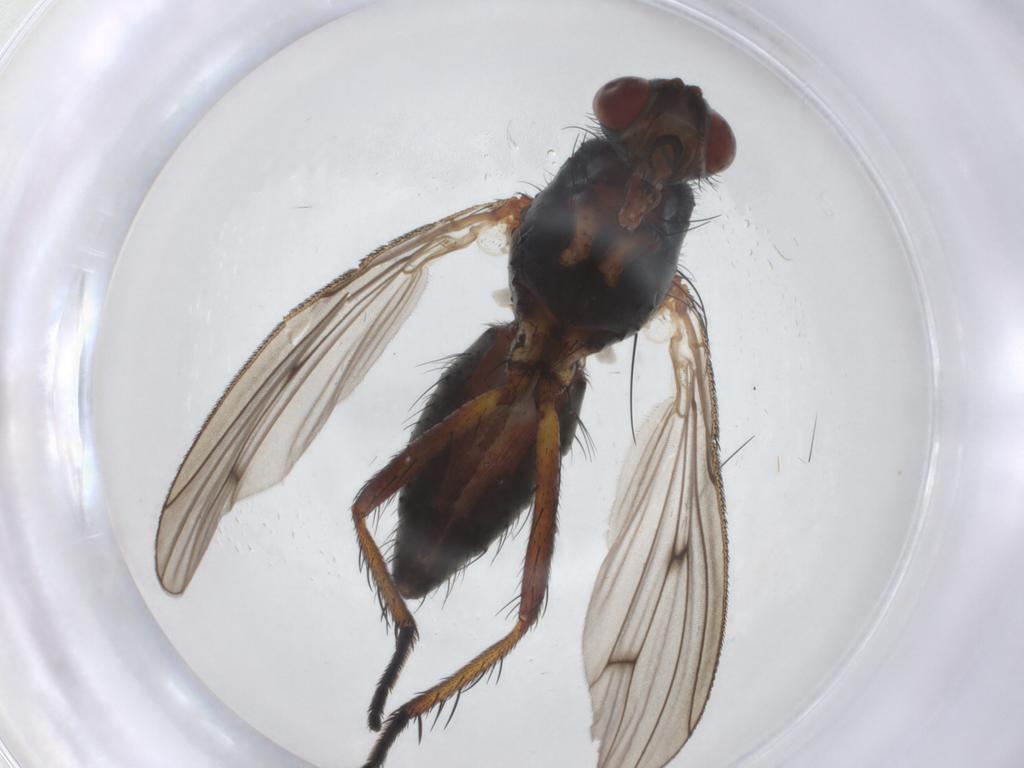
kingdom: Animalia
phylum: Arthropoda
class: Insecta
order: Diptera
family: Anthomyiidae
